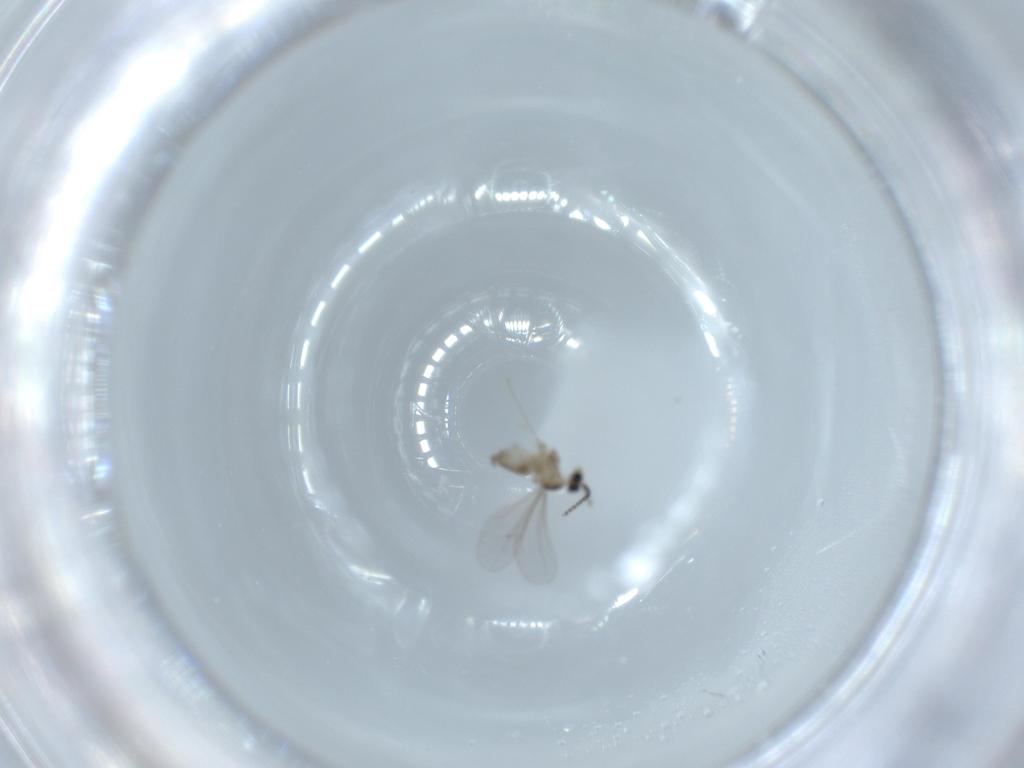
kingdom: Animalia
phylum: Arthropoda
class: Insecta
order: Diptera
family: Cecidomyiidae
